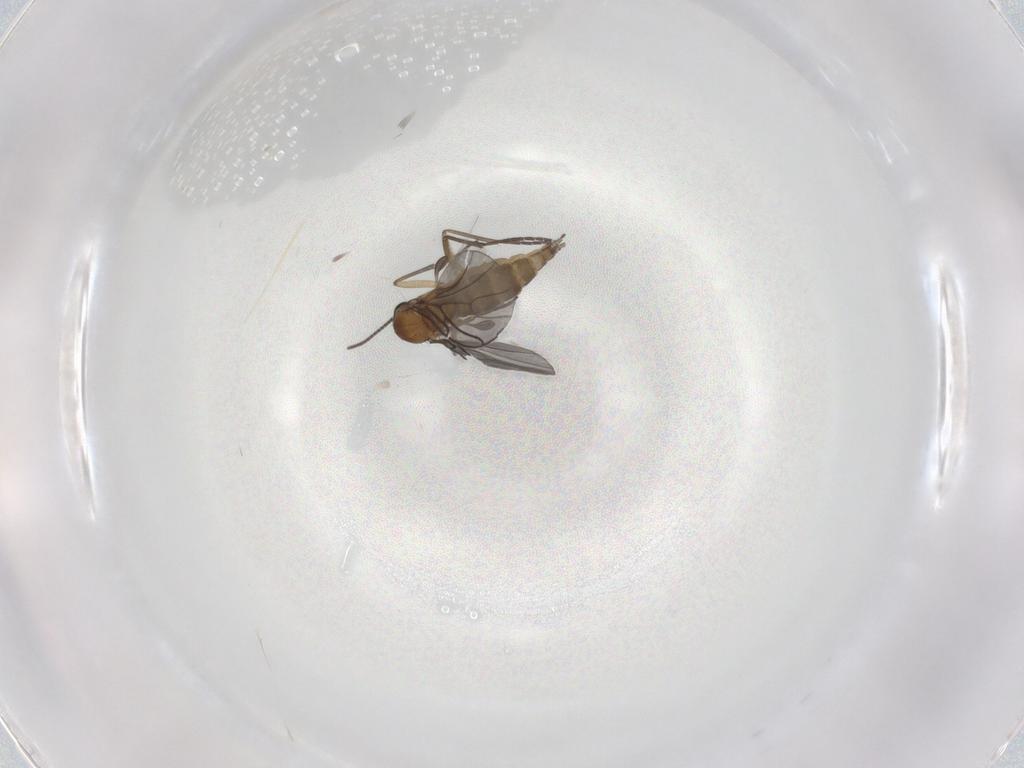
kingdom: Animalia
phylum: Arthropoda
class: Insecta
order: Diptera
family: Sciaridae
